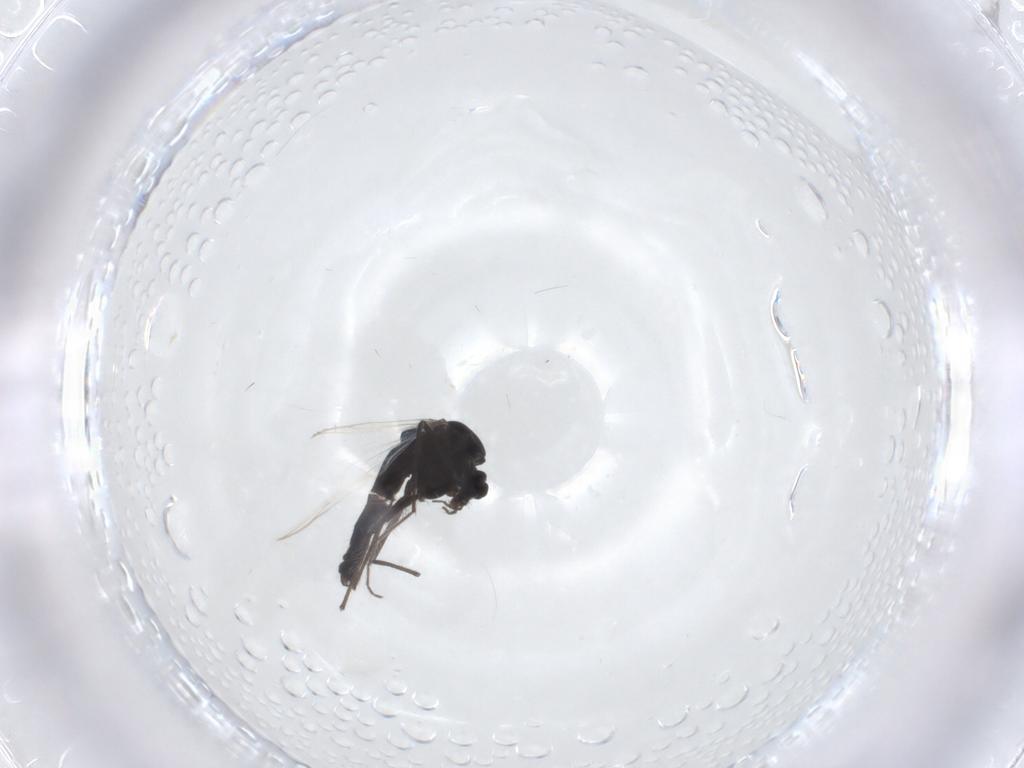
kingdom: Animalia
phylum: Arthropoda
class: Insecta
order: Diptera
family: Chironomidae
